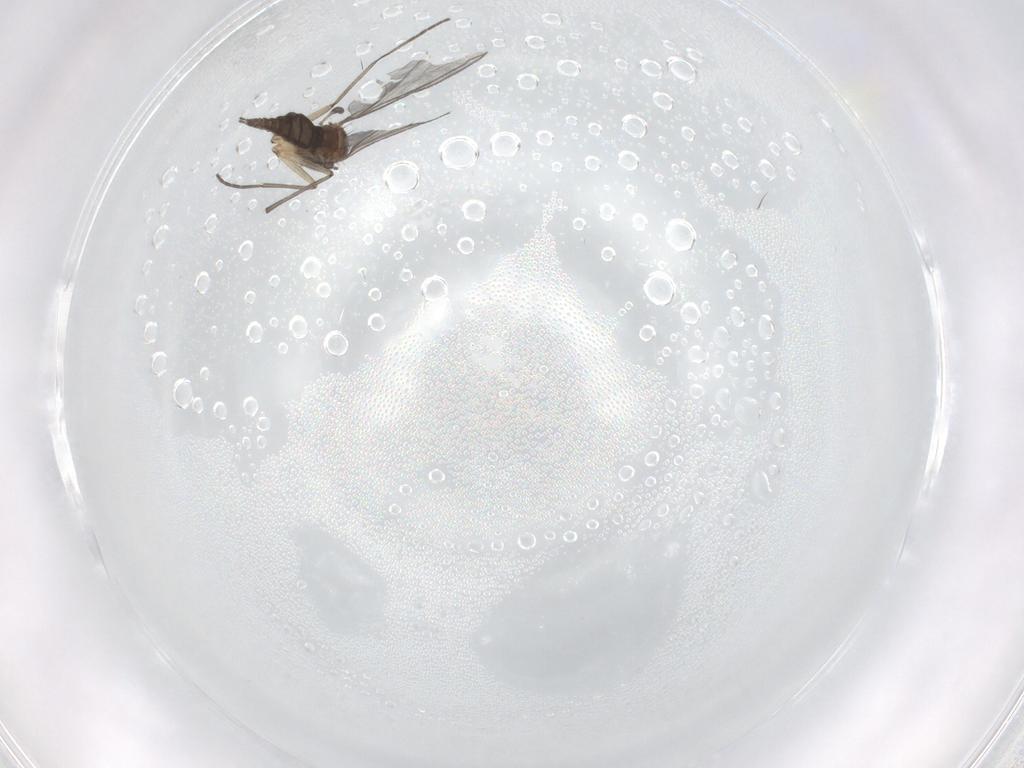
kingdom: Animalia
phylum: Arthropoda
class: Insecta
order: Diptera
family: Sciaridae
